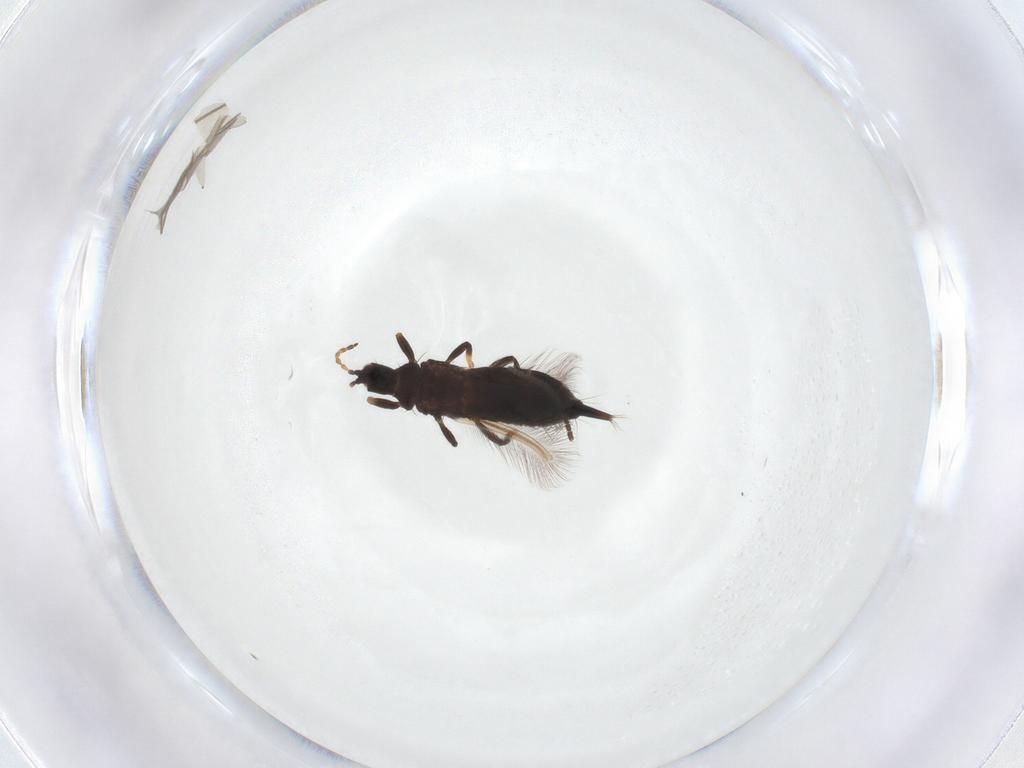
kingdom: Animalia
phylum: Arthropoda
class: Insecta
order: Thysanoptera
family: Phlaeothripidae
